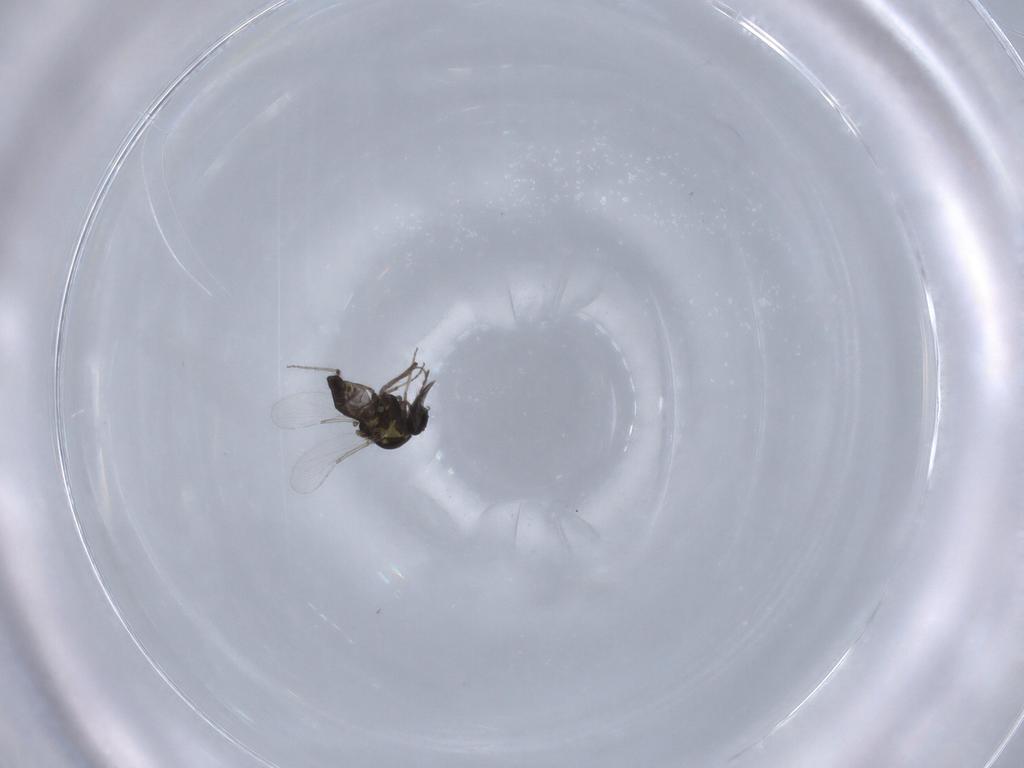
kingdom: Animalia
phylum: Arthropoda
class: Insecta
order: Diptera
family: Ceratopogonidae
